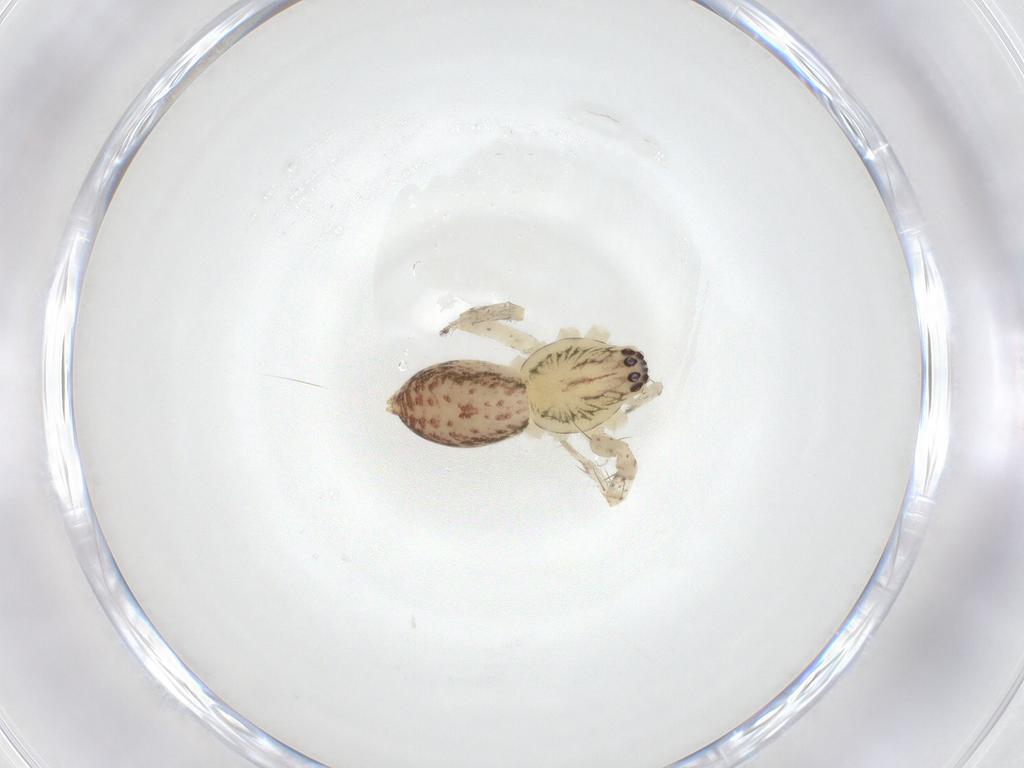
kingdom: Animalia
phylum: Arthropoda
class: Arachnida
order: Araneae
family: Anyphaenidae
